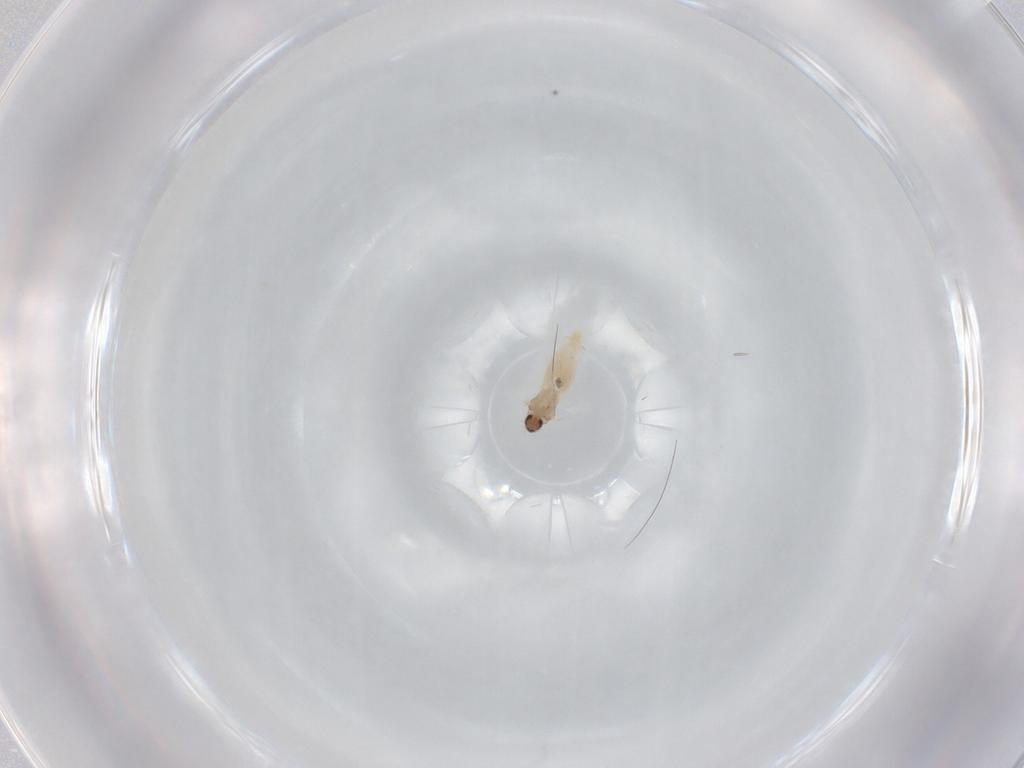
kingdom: Animalia
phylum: Arthropoda
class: Insecta
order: Diptera
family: Cecidomyiidae
